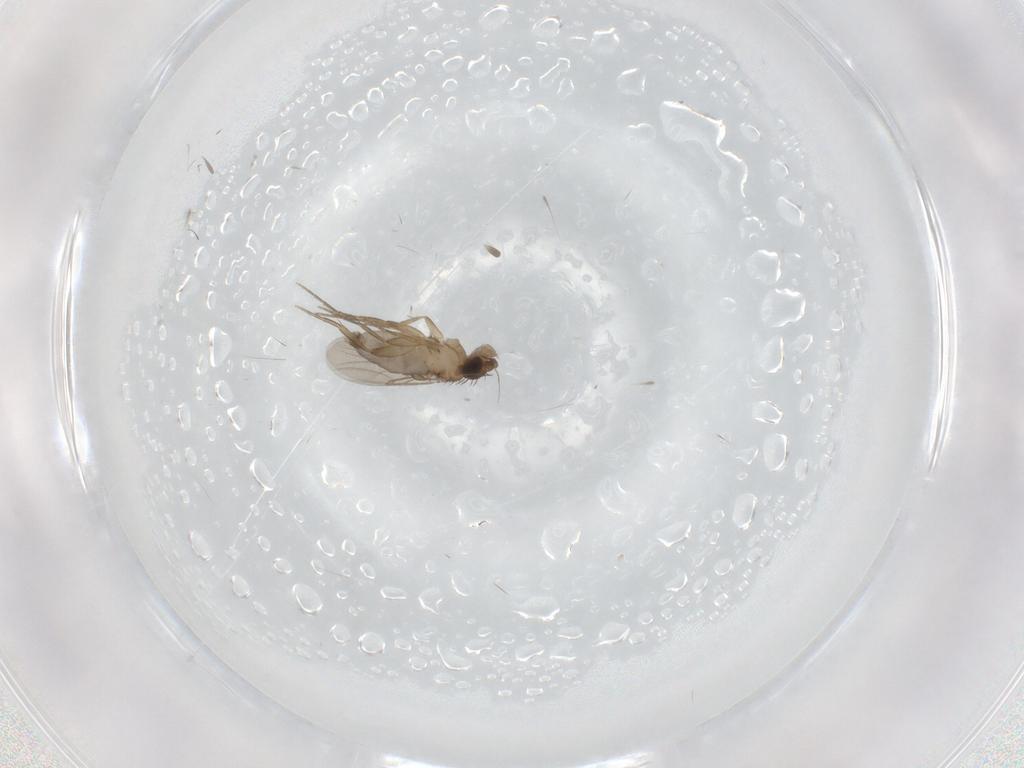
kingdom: Animalia
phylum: Arthropoda
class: Insecta
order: Diptera
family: Phoridae
